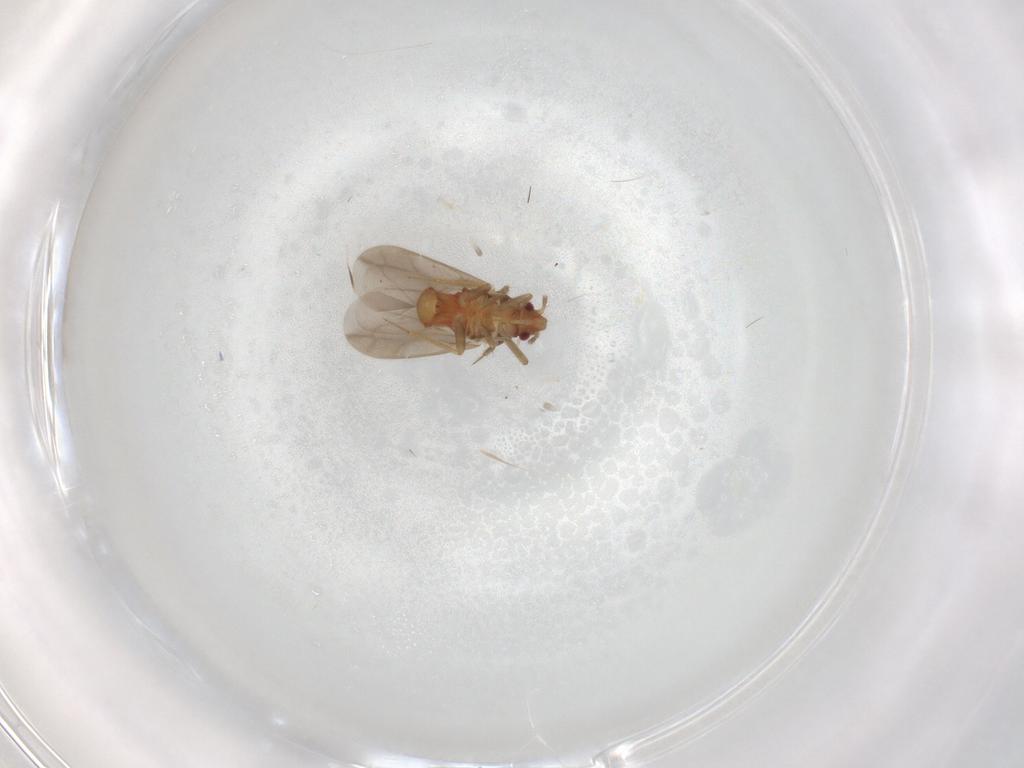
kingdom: Animalia
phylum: Arthropoda
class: Insecta
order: Hemiptera
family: Ceratocombidae
